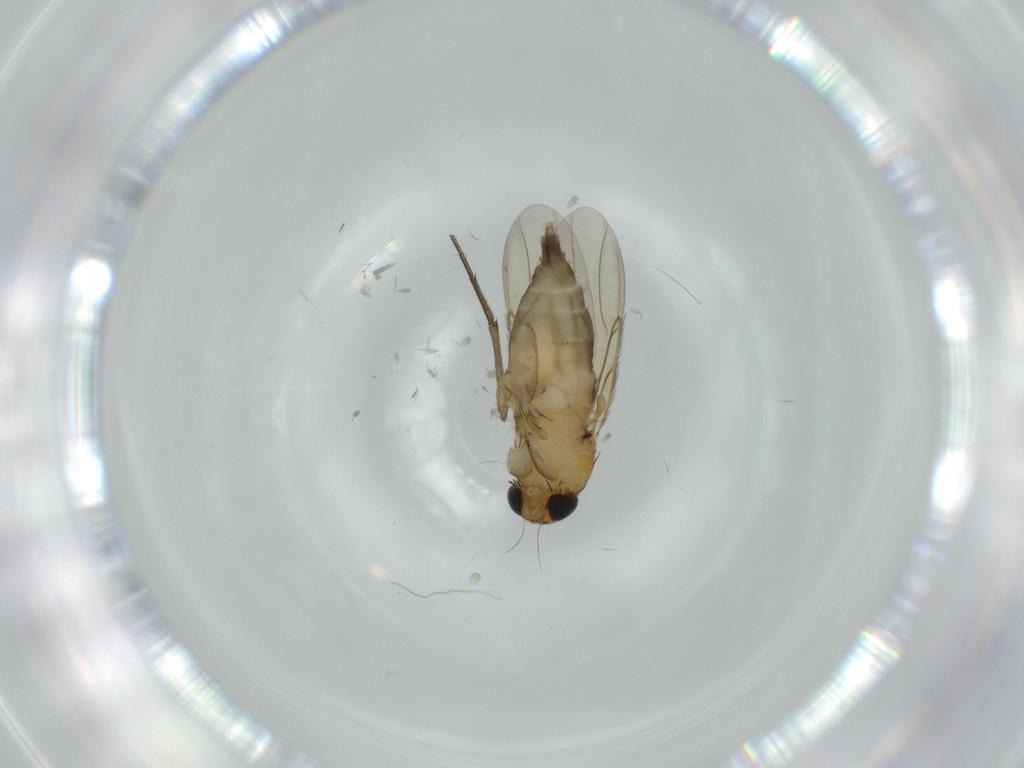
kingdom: Animalia
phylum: Arthropoda
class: Insecta
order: Diptera
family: Phoridae
